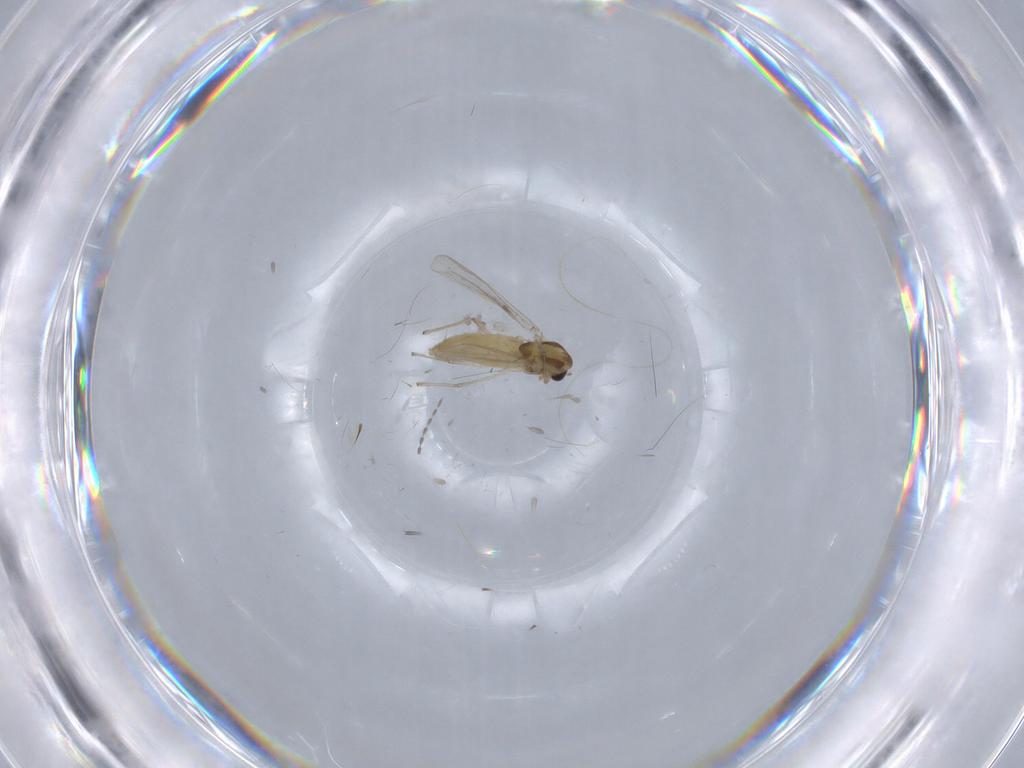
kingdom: Animalia
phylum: Arthropoda
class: Insecta
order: Diptera
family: Chironomidae
